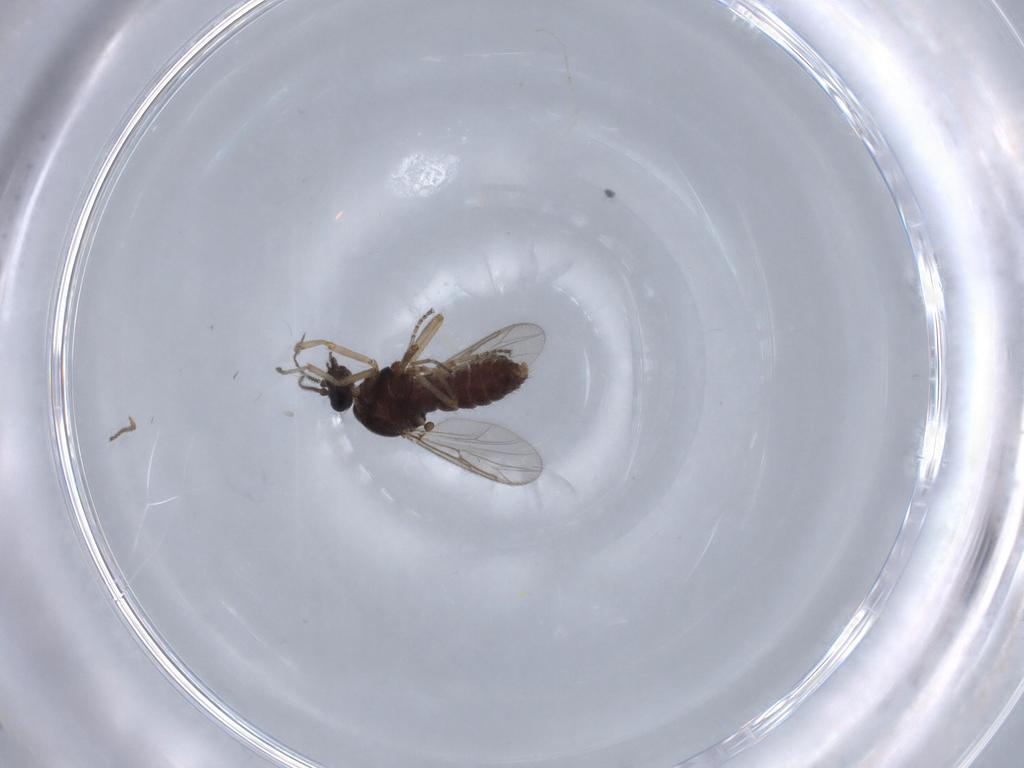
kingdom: Animalia
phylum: Arthropoda
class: Insecta
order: Diptera
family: Ceratopogonidae
